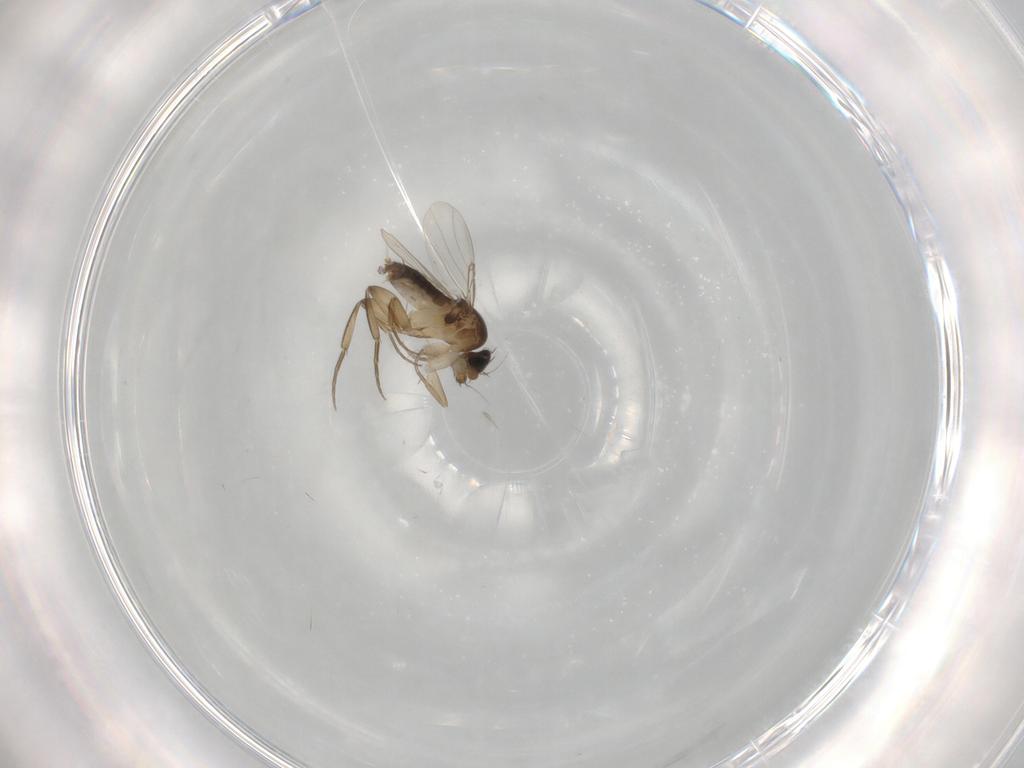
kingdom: Animalia
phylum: Arthropoda
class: Insecta
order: Diptera
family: Phoridae
